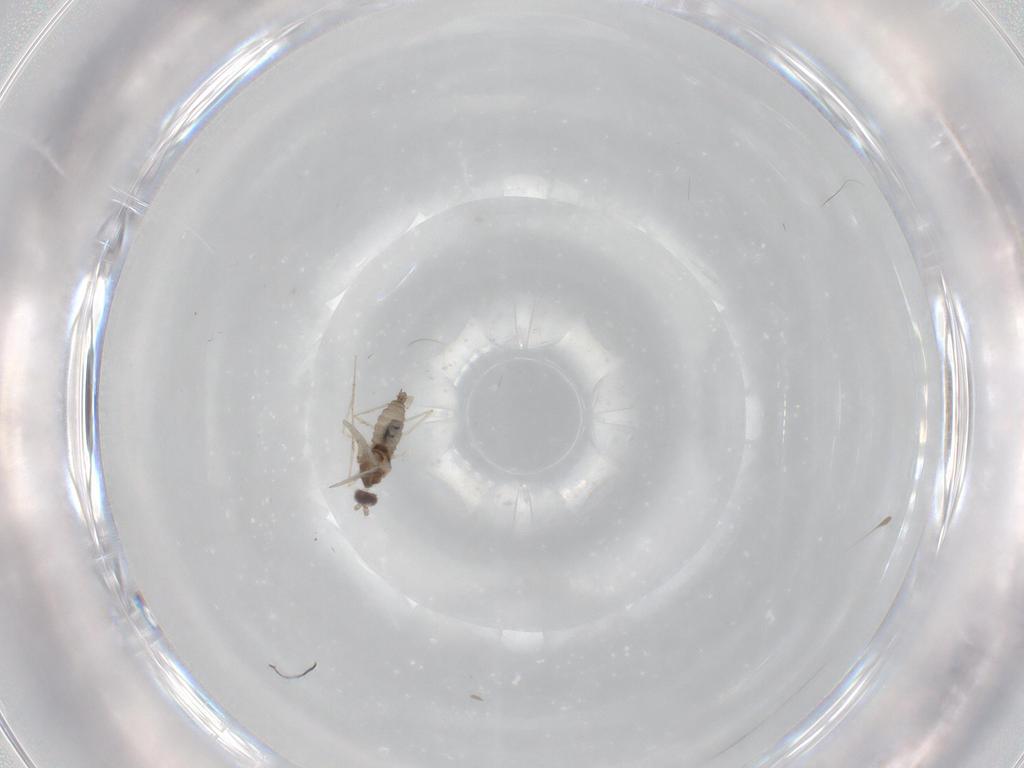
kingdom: Animalia
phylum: Arthropoda
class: Insecta
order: Diptera
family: Cecidomyiidae
